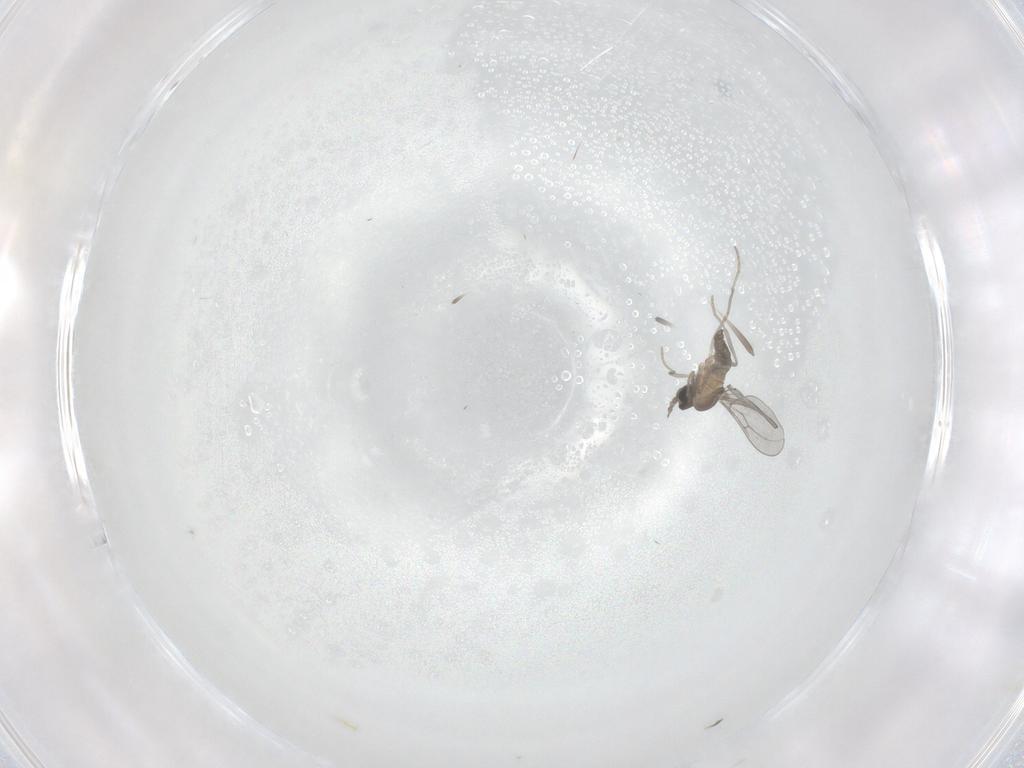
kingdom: Animalia
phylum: Arthropoda
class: Insecta
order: Diptera
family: Cecidomyiidae
